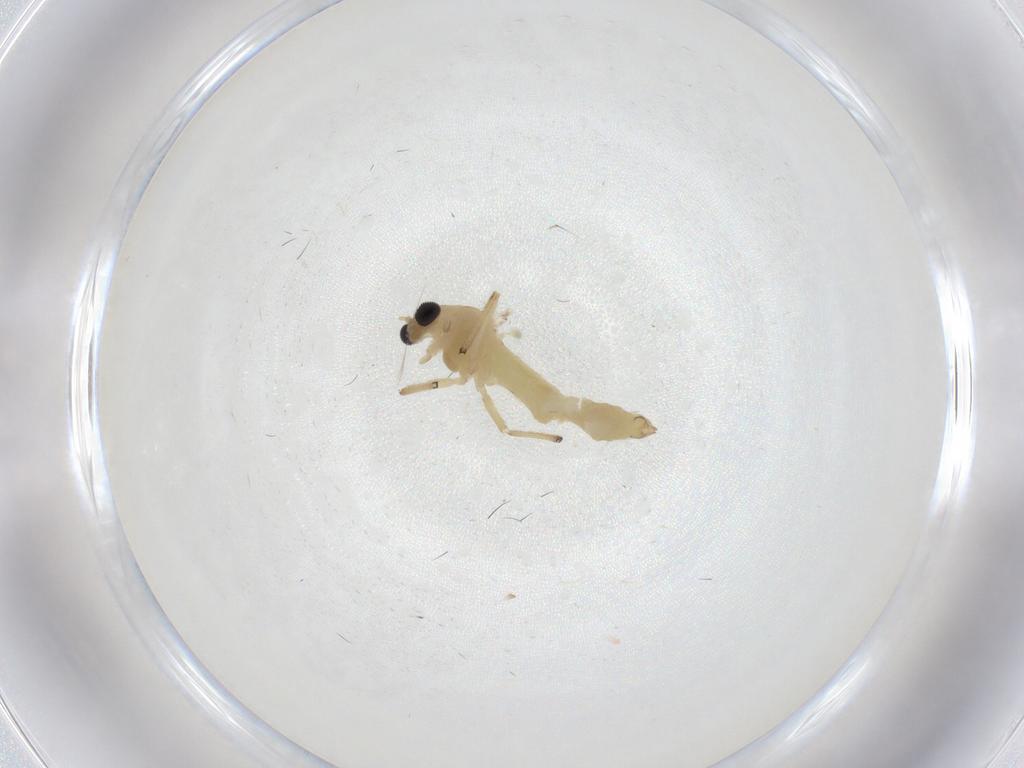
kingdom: Animalia
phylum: Arthropoda
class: Insecta
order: Diptera
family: Chironomidae
